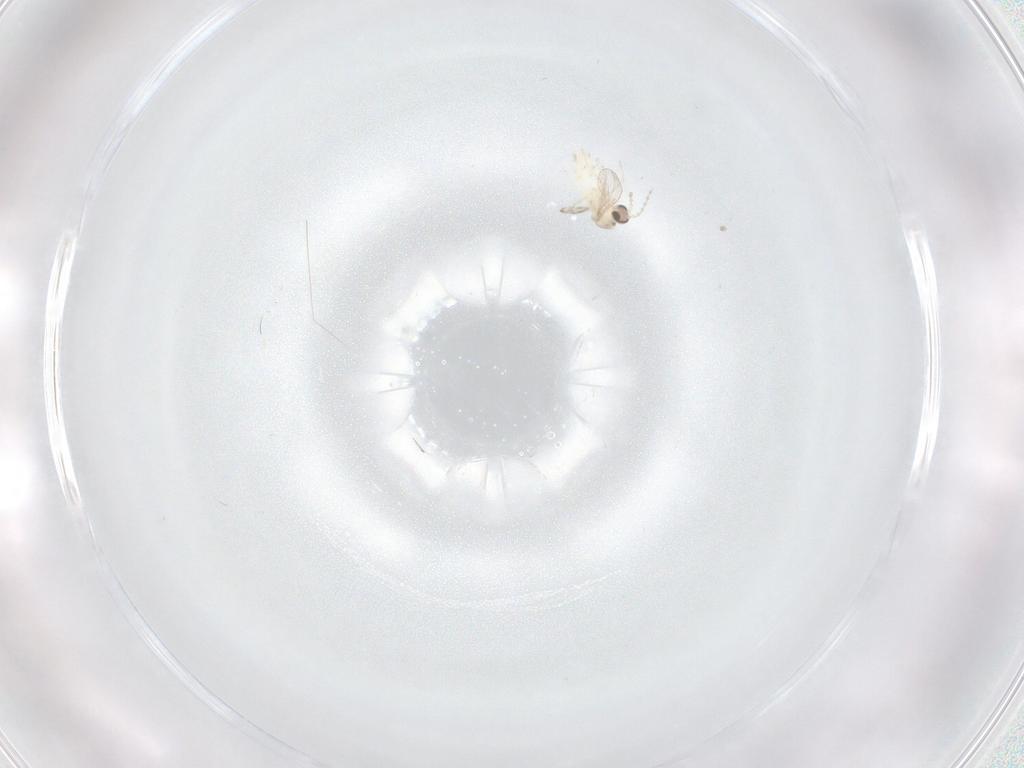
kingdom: Animalia
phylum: Arthropoda
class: Insecta
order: Diptera
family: Cecidomyiidae
